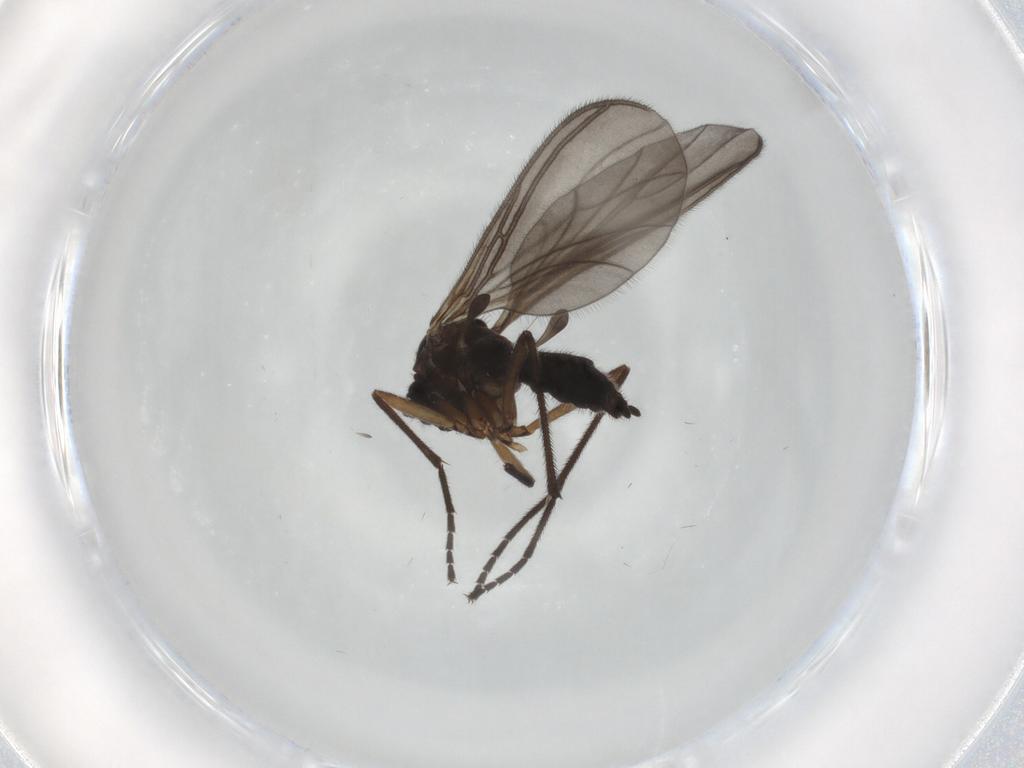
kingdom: Animalia
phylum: Arthropoda
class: Insecta
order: Diptera
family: Sciaridae
